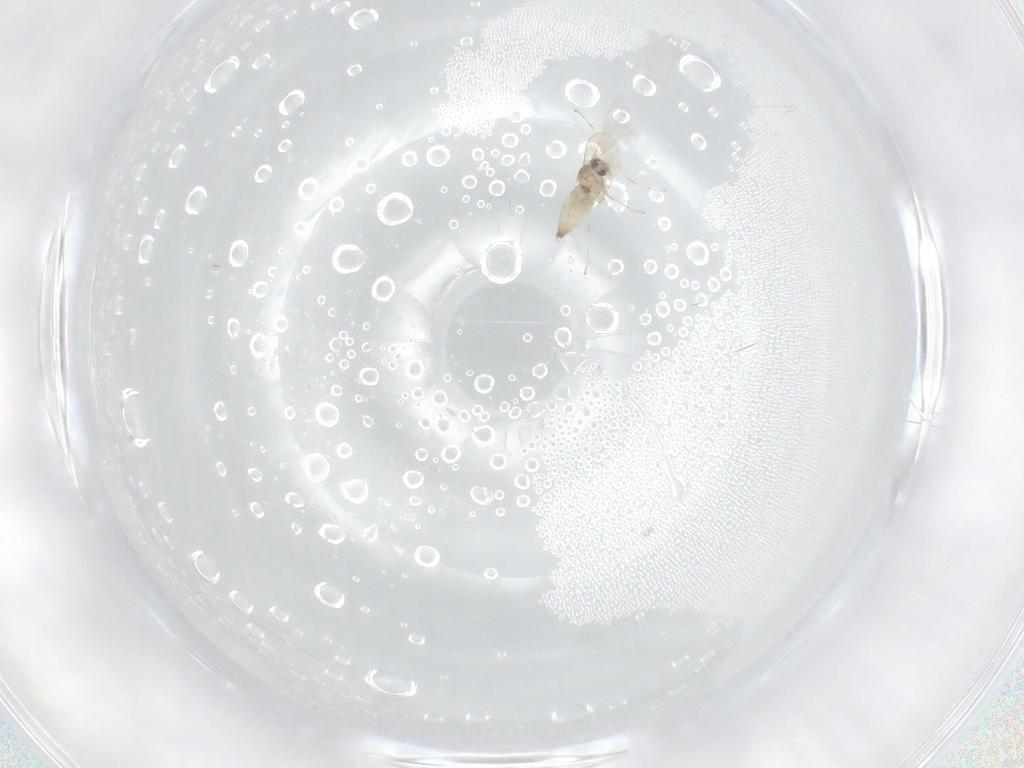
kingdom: Animalia
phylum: Arthropoda
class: Insecta
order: Diptera
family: Cecidomyiidae
